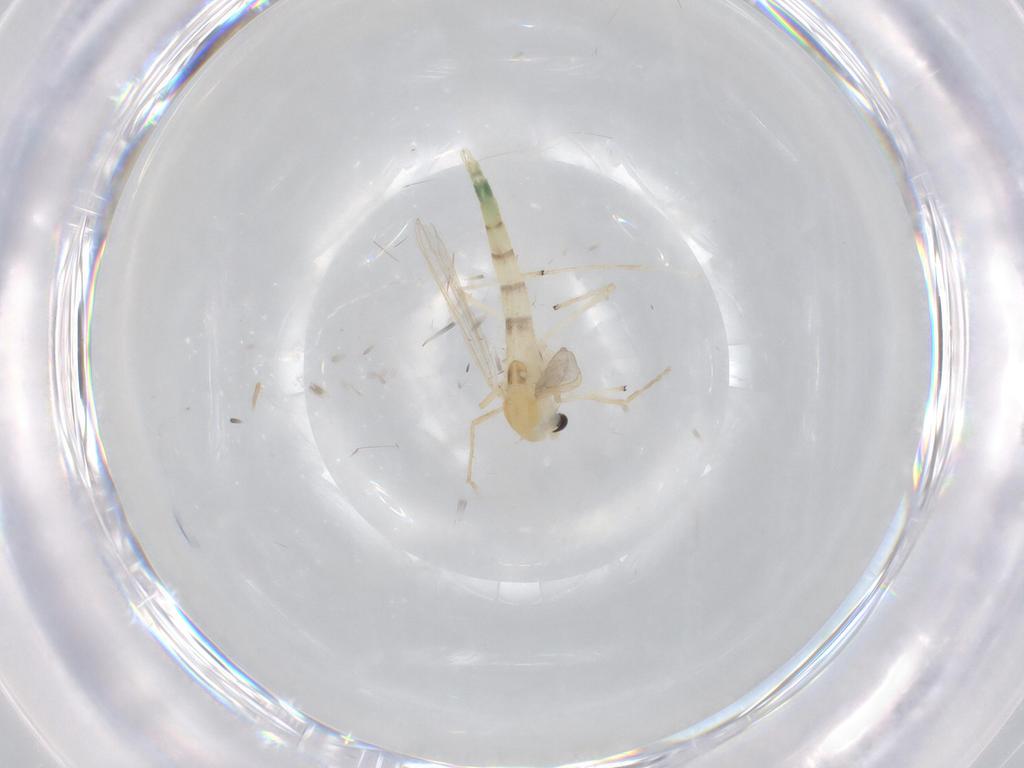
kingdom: Animalia
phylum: Arthropoda
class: Insecta
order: Diptera
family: Chironomidae
